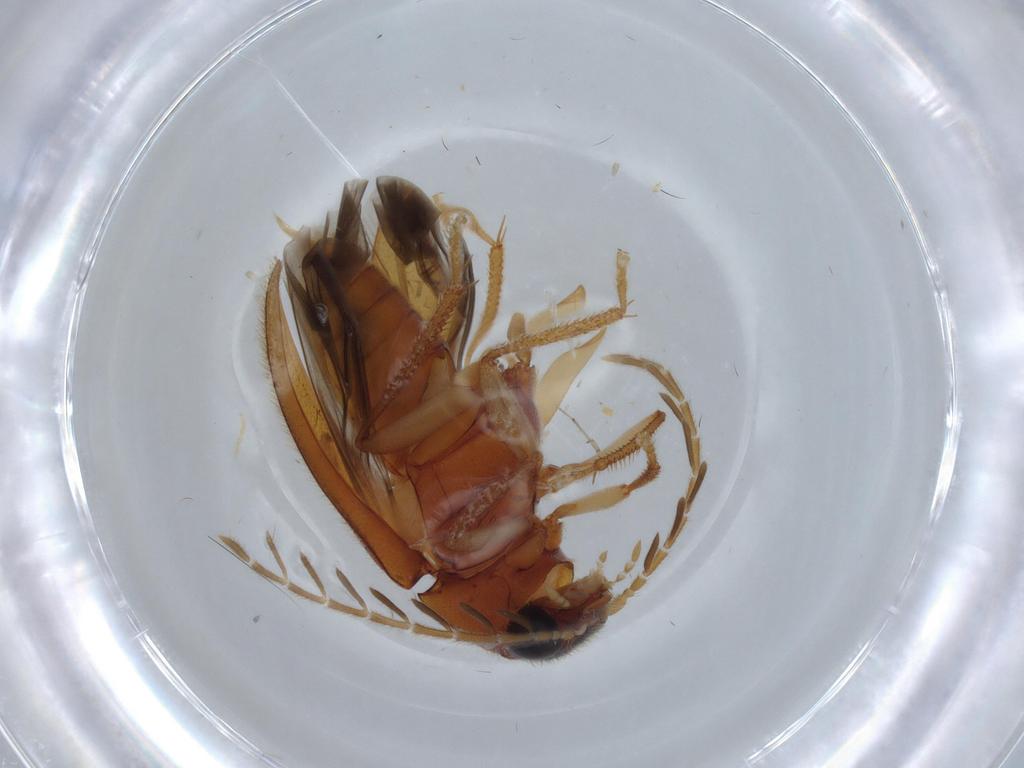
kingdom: Animalia
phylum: Arthropoda
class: Insecta
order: Coleoptera
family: Ptilodactylidae
